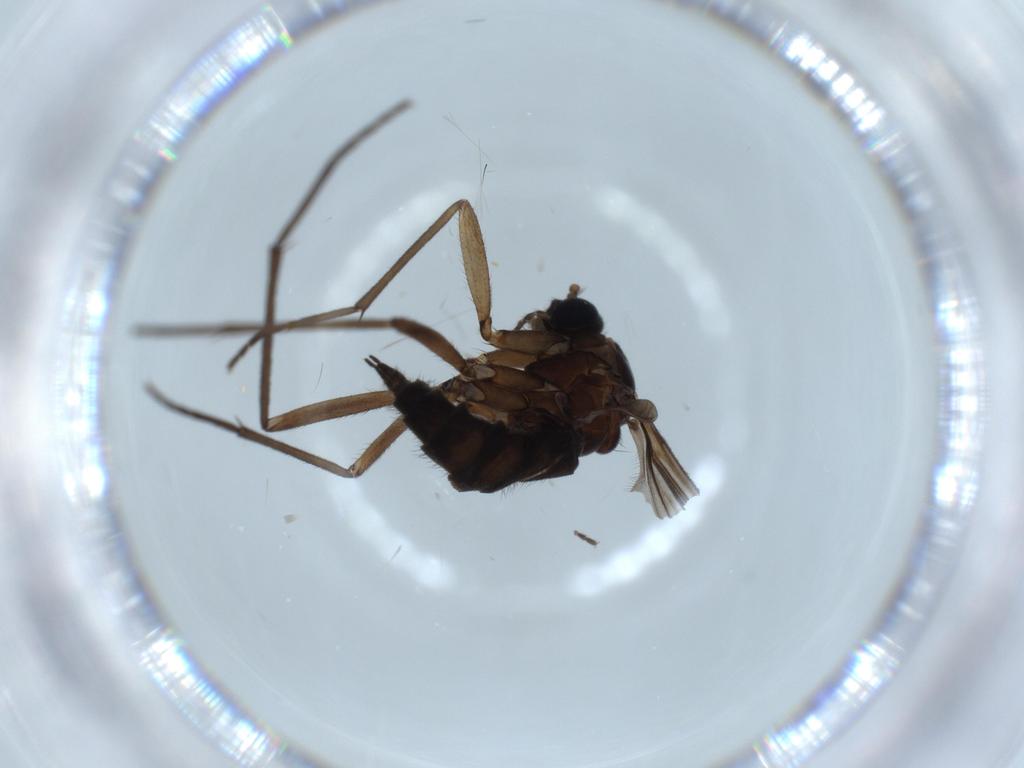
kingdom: Animalia
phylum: Arthropoda
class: Insecta
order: Diptera
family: Sciaridae
